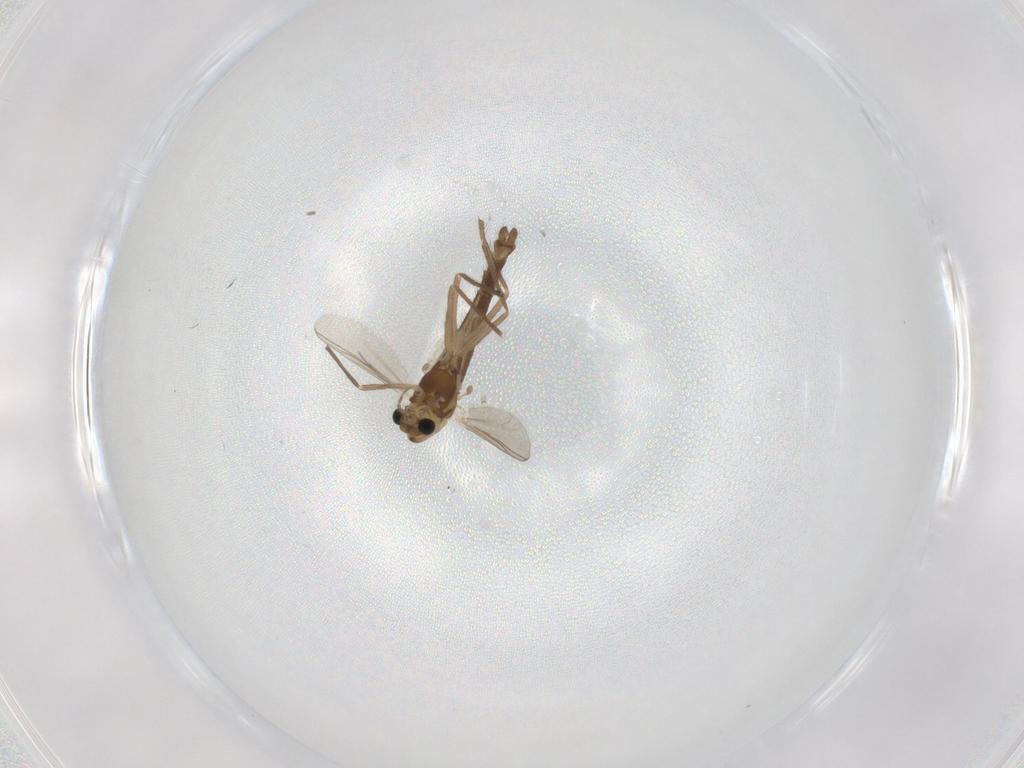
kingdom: Animalia
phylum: Arthropoda
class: Insecta
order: Diptera
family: Chironomidae
